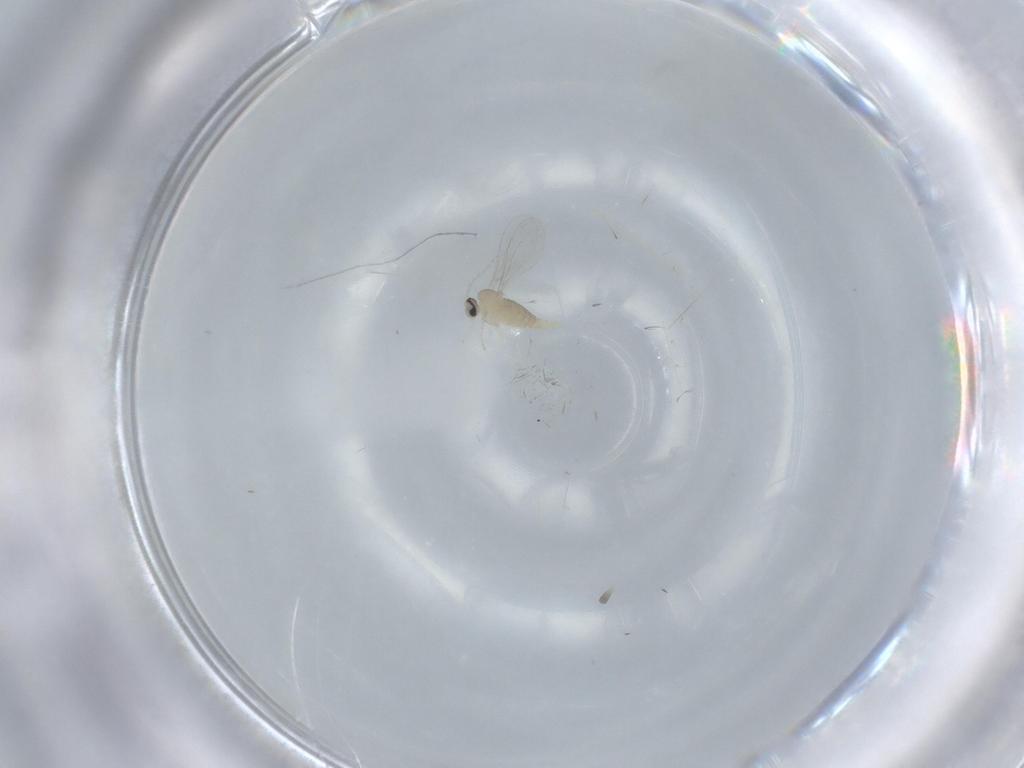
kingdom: Animalia
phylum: Arthropoda
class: Insecta
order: Diptera
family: Cecidomyiidae
